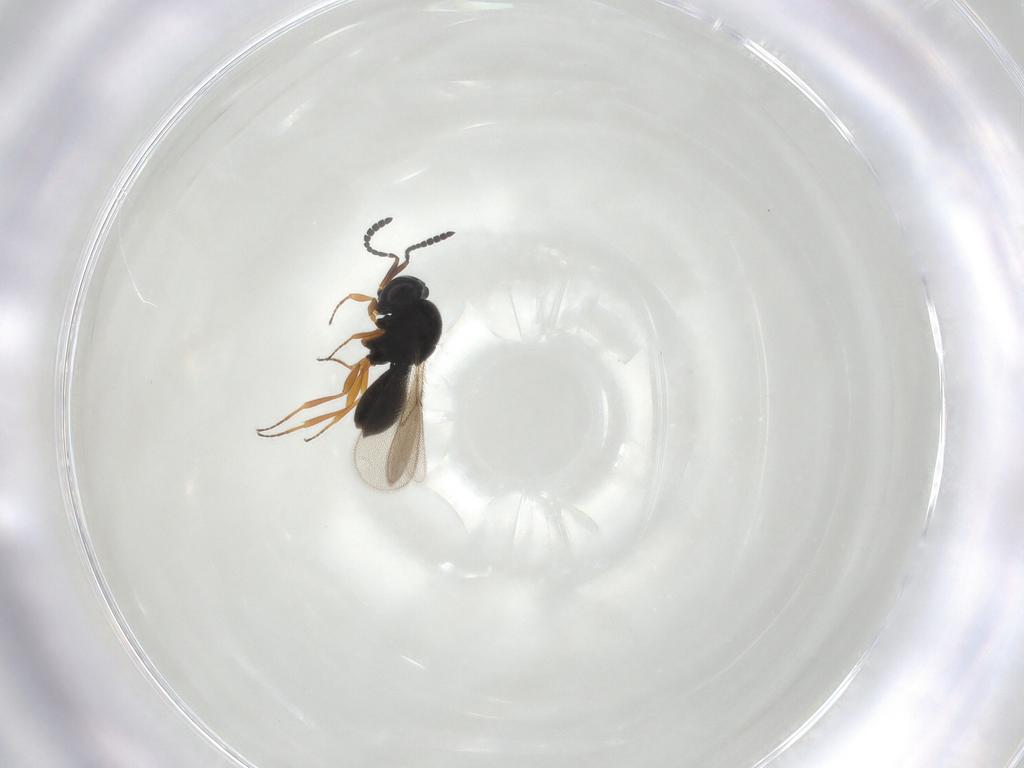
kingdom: Animalia
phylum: Arthropoda
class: Insecta
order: Hymenoptera
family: Scelionidae
